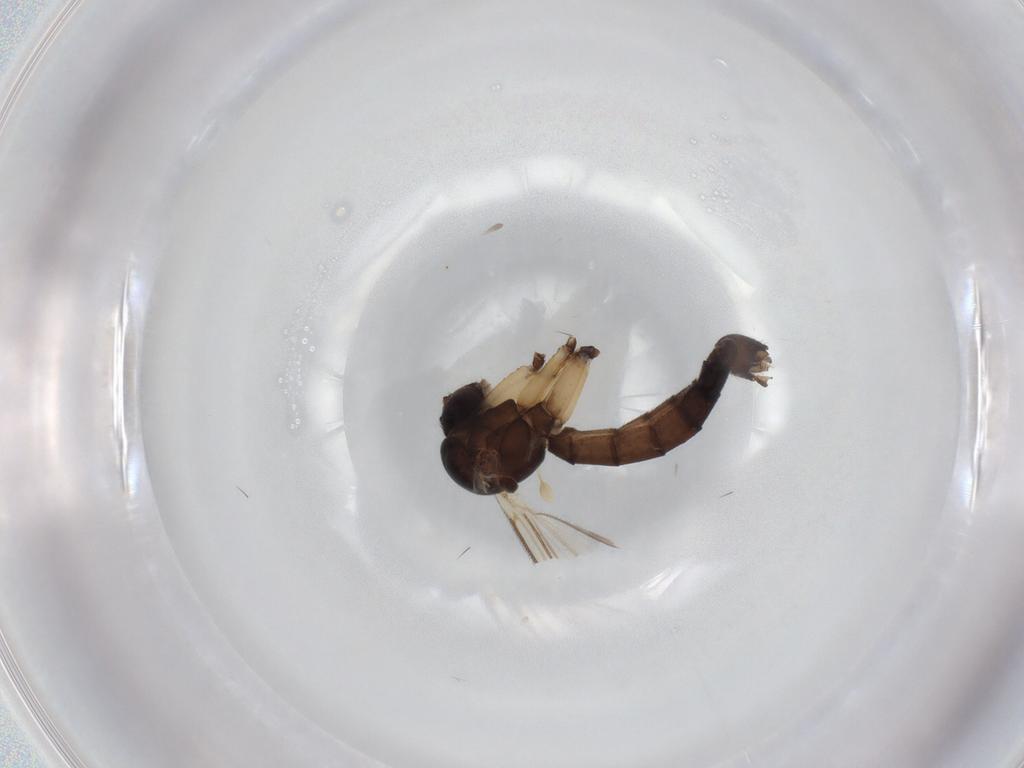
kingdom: Animalia
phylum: Arthropoda
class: Insecta
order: Diptera
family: Mycetophilidae
